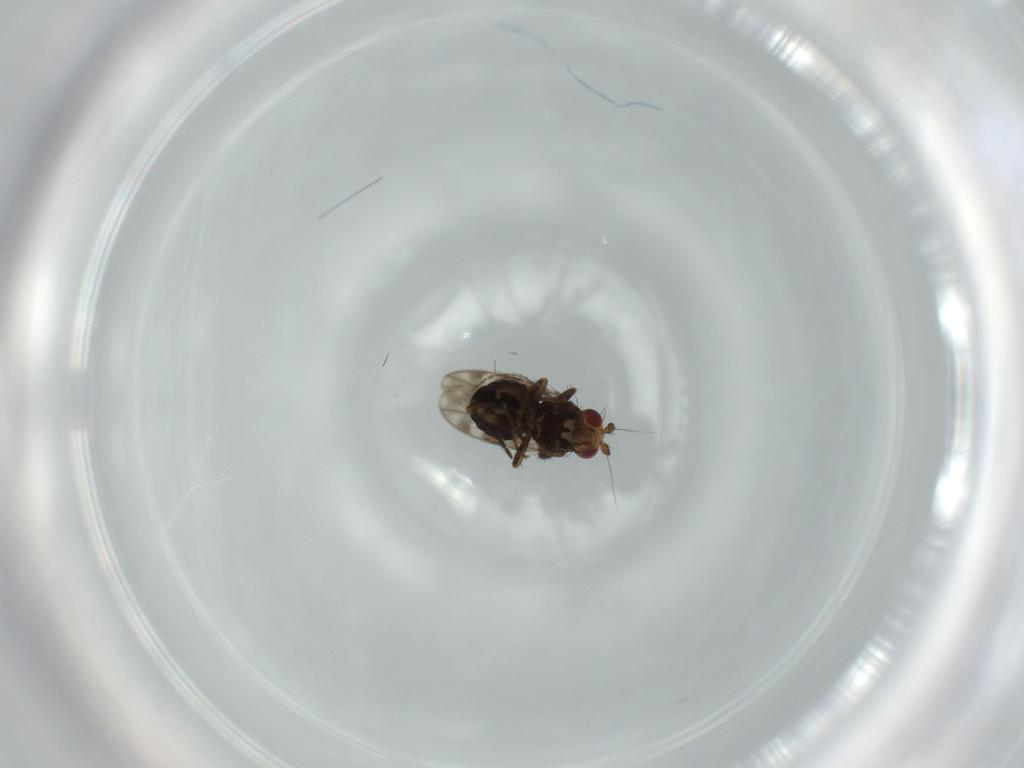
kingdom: Animalia
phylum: Arthropoda
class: Insecta
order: Diptera
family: Sphaeroceridae
